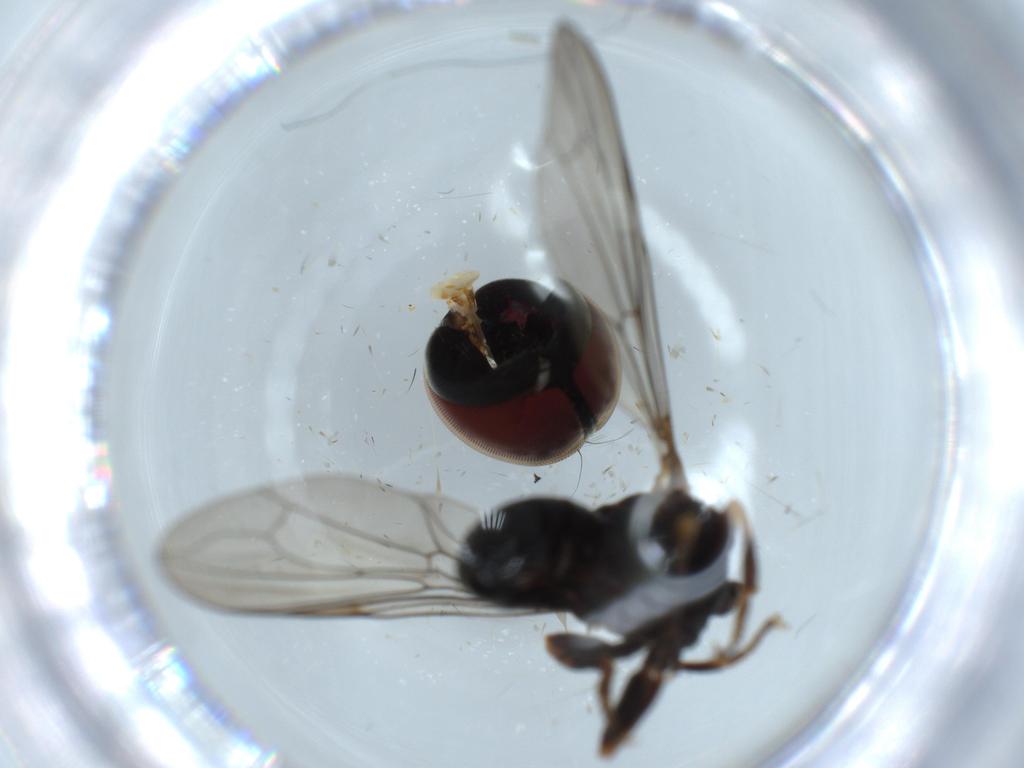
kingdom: Animalia
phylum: Arthropoda
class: Insecta
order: Diptera
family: Pipunculidae
